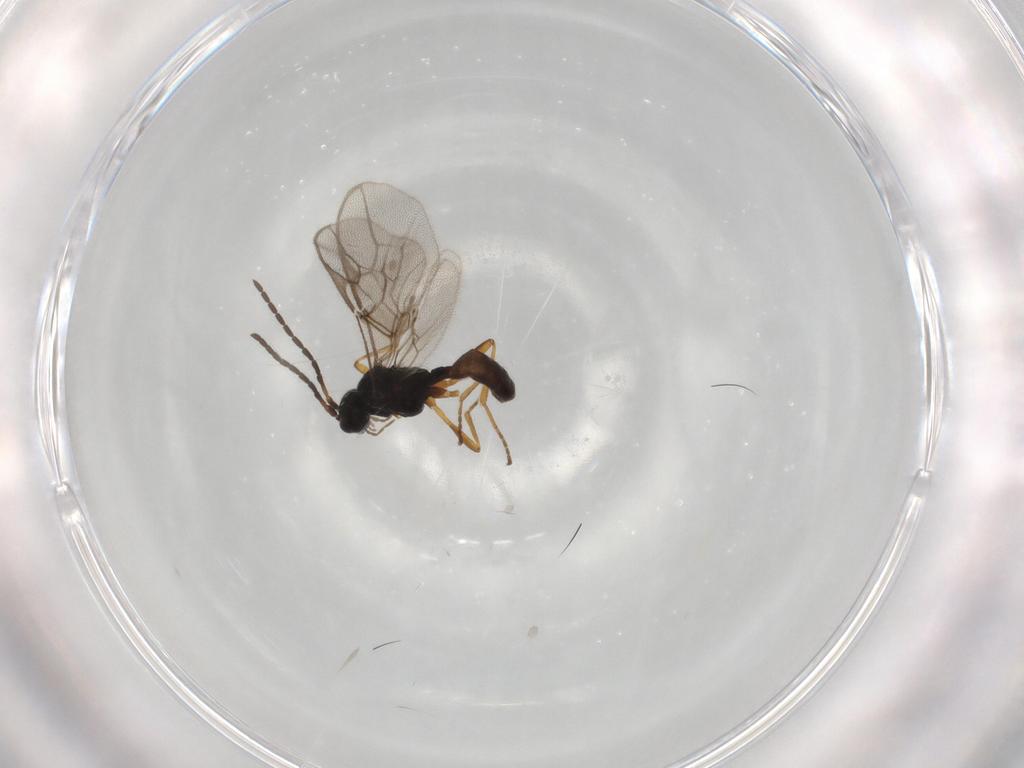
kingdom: Animalia
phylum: Arthropoda
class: Insecta
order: Hymenoptera
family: Braconidae
